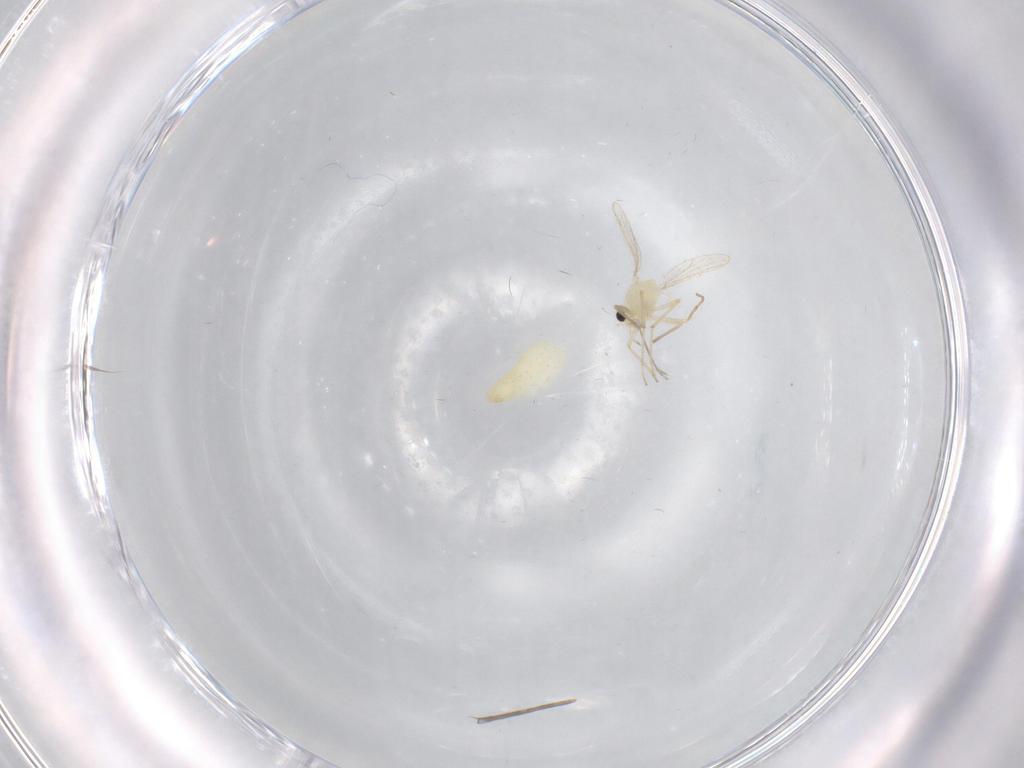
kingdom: Animalia
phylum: Arthropoda
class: Insecta
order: Diptera
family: Chironomidae
